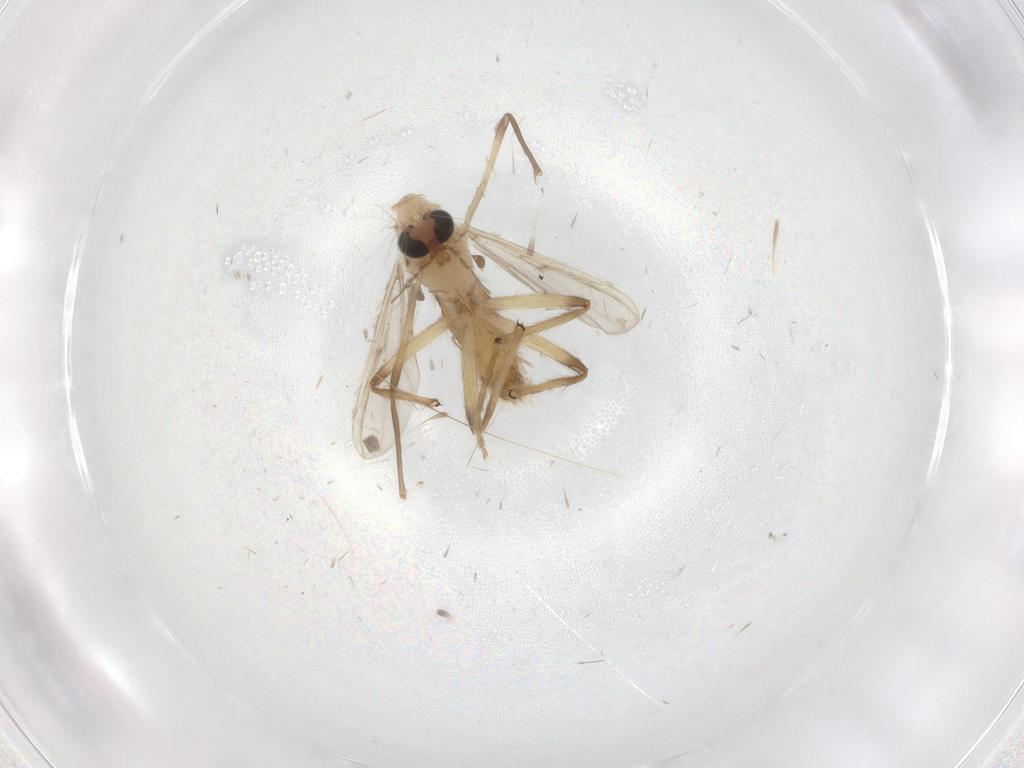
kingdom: Animalia
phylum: Arthropoda
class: Insecta
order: Diptera
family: Chironomidae
